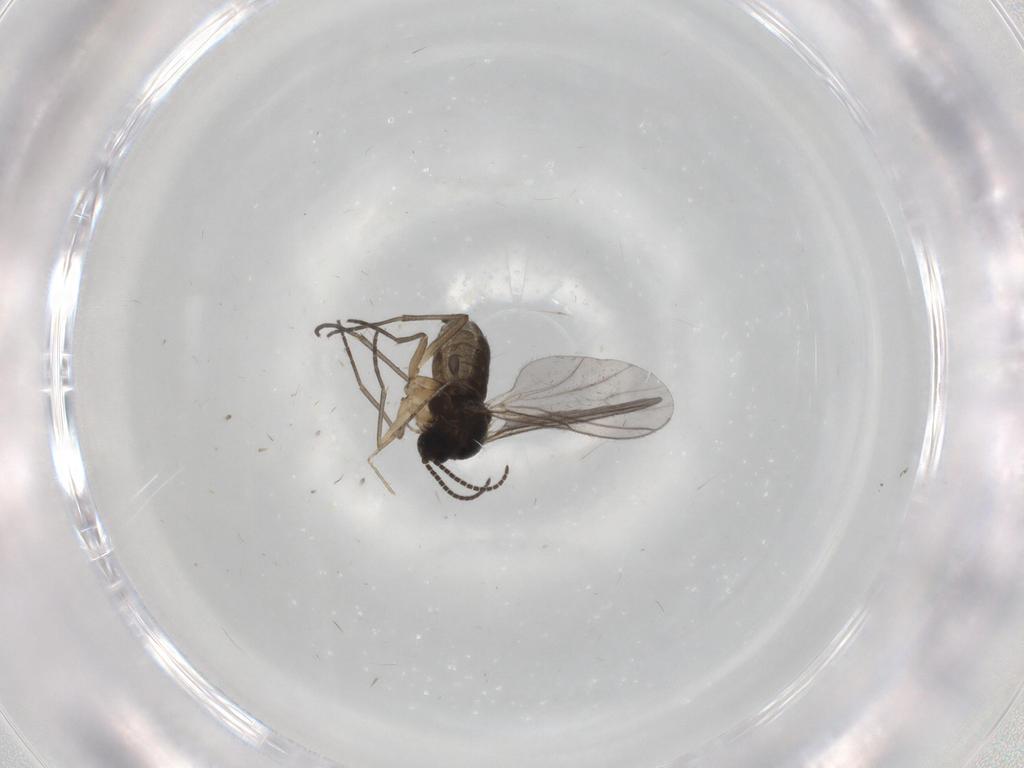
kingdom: Animalia
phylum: Arthropoda
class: Insecta
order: Diptera
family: Sciaridae
